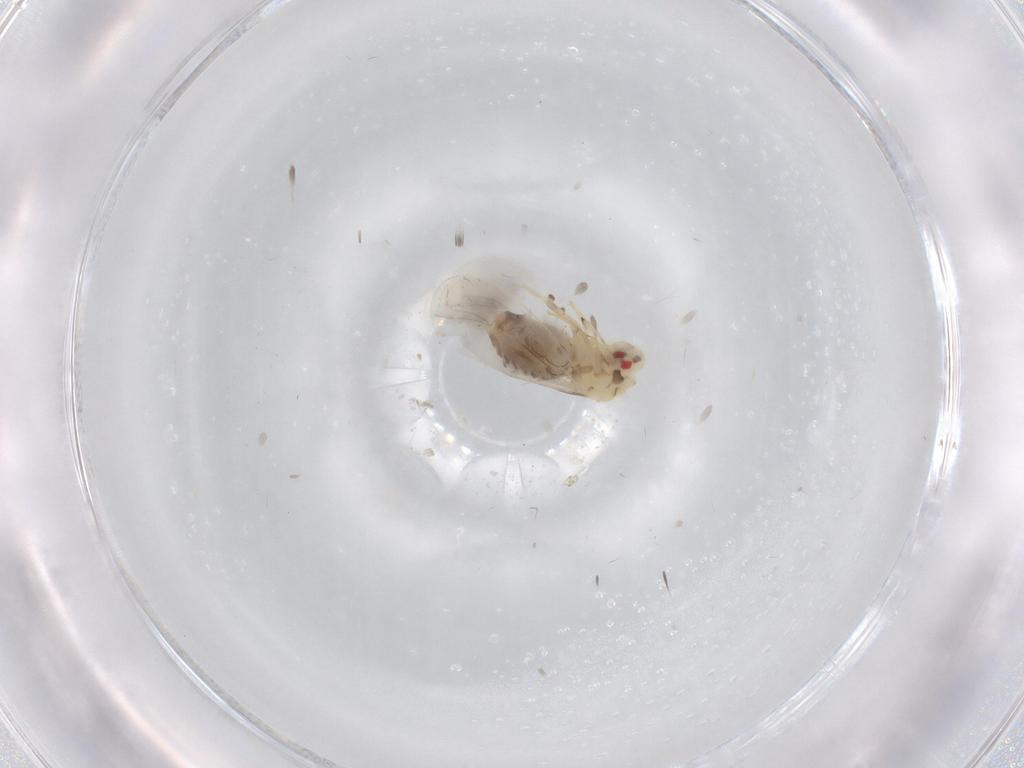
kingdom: Animalia
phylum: Arthropoda
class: Insecta
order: Hemiptera
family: Aleyrodidae
